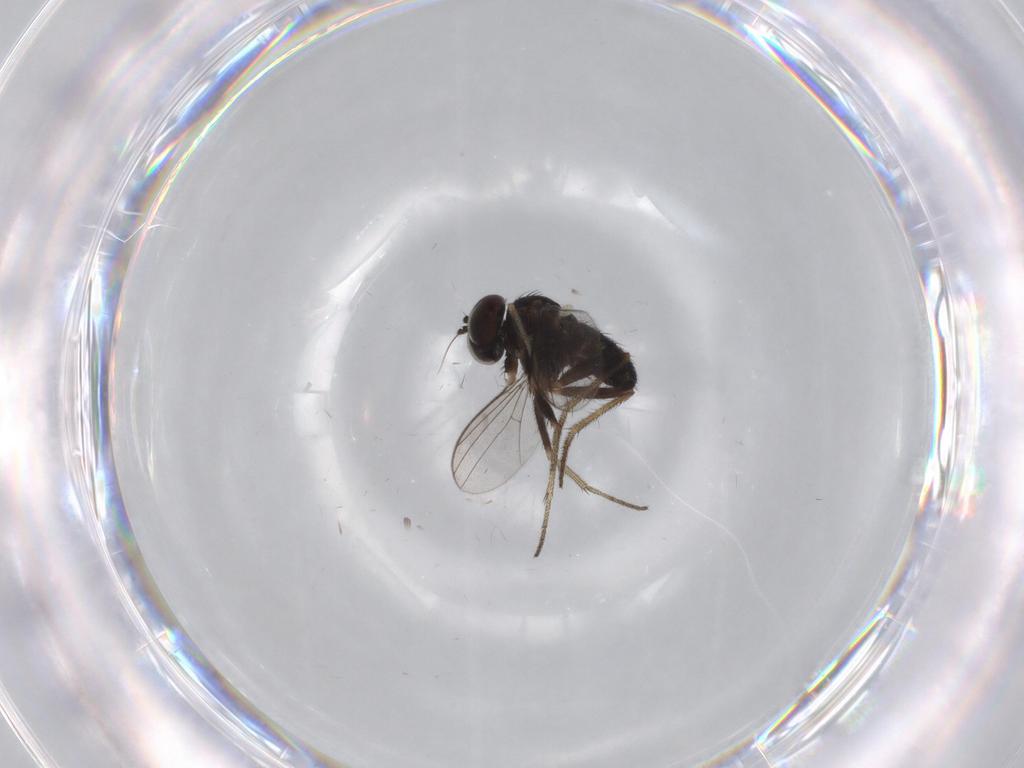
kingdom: Animalia
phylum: Arthropoda
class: Insecta
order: Diptera
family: Cecidomyiidae
